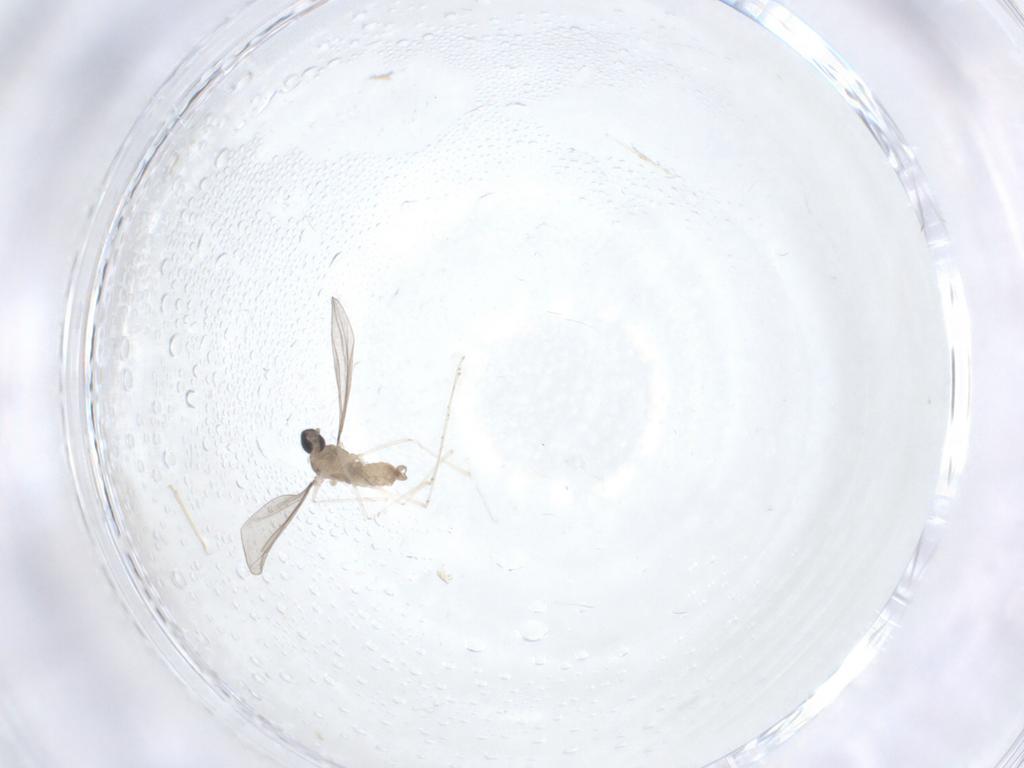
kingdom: Animalia
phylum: Arthropoda
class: Insecta
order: Diptera
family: Cecidomyiidae
